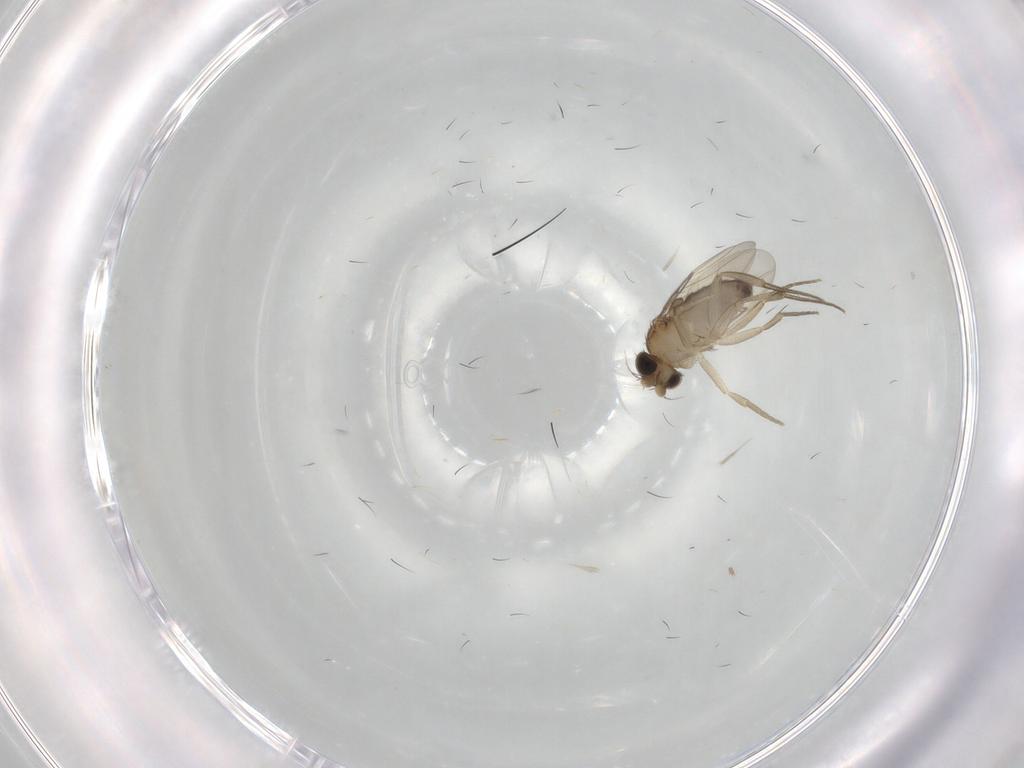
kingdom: Animalia
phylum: Arthropoda
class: Insecta
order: Diptera
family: Phoridae
